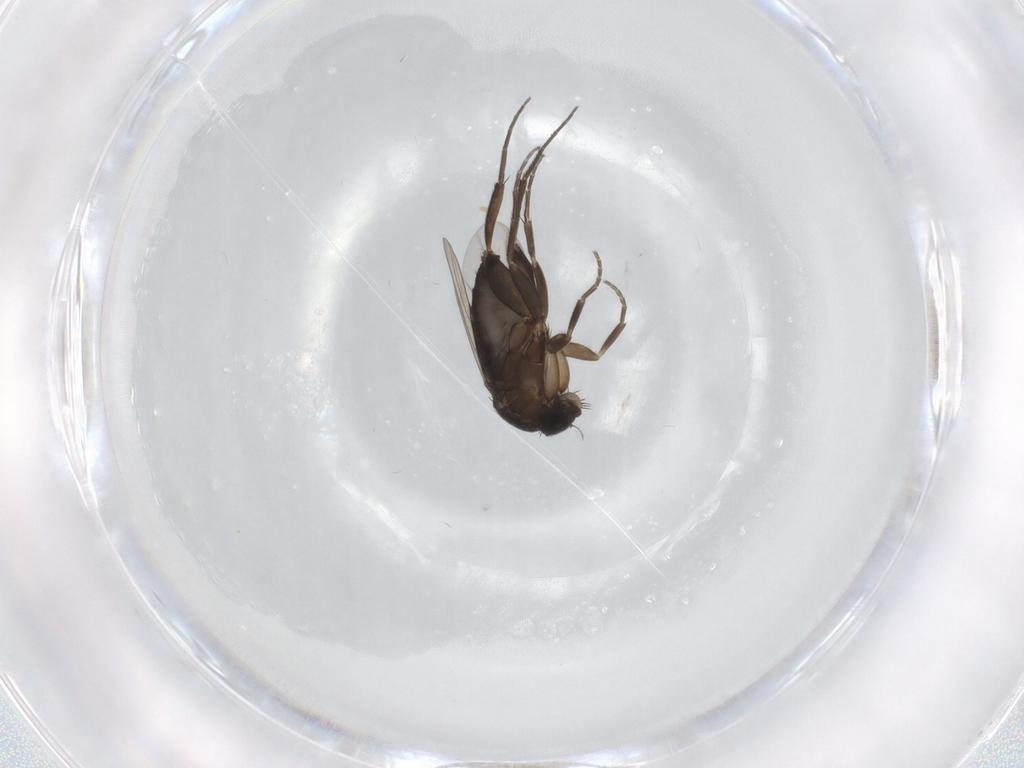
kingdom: Animalia
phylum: Arthropoda
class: Insecta
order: Diptera
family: Phoridae
